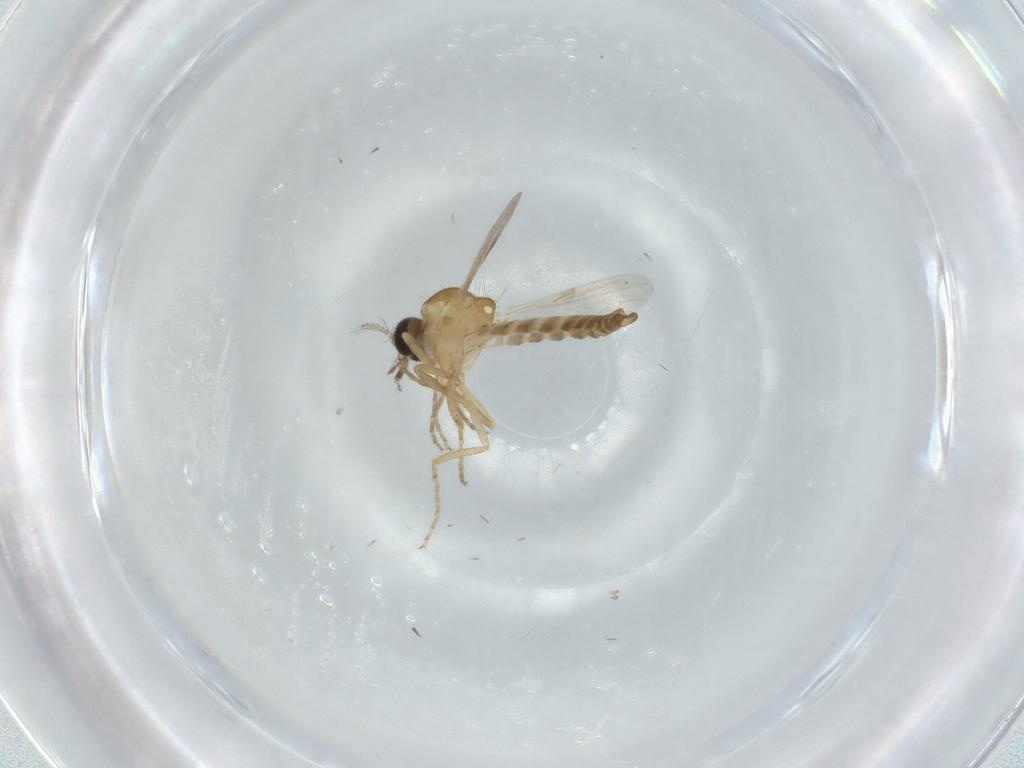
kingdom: Animalia
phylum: Arthropoda
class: Insecta
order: Diptera
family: Ceratopogonidae
